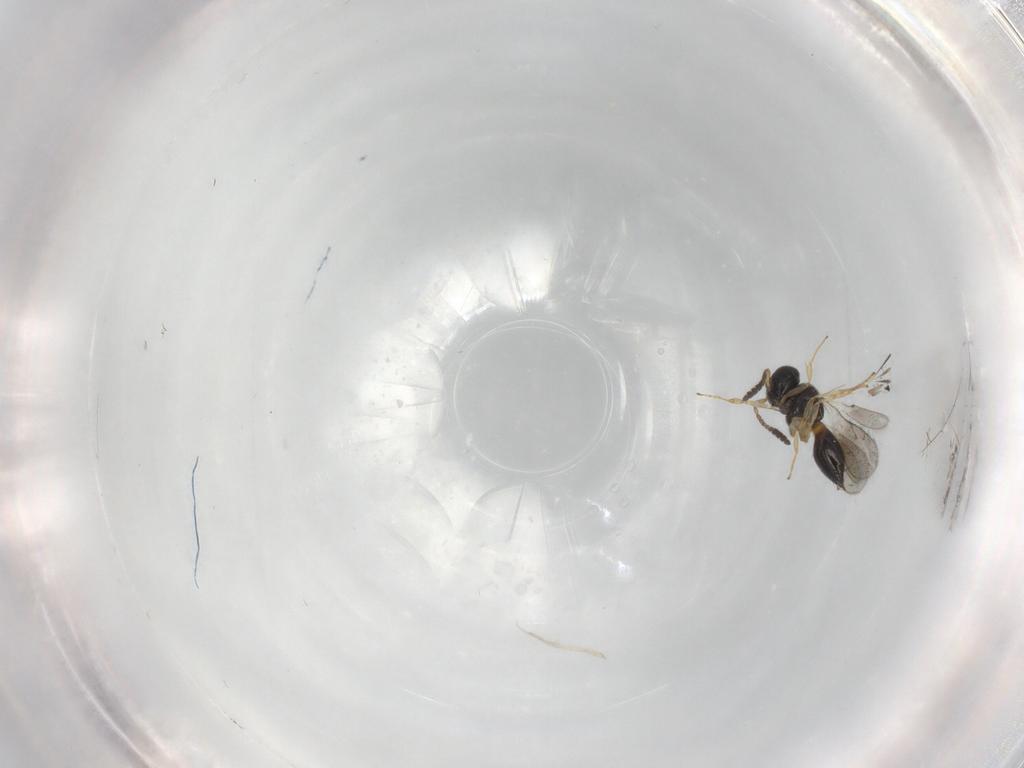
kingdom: Animalia
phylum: Arthropoda
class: Insecta
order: Hymenoptera
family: Scelionidae
